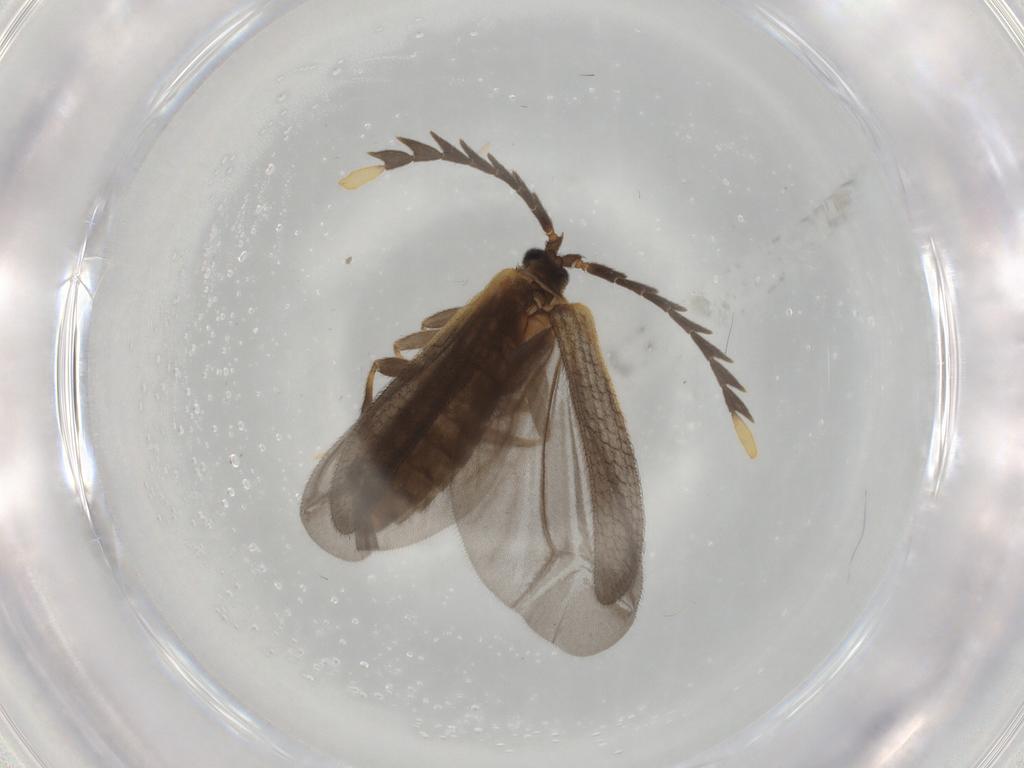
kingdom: Animalia
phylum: Arthropoda
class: Insecta
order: Coleoptera
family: Lycidae
